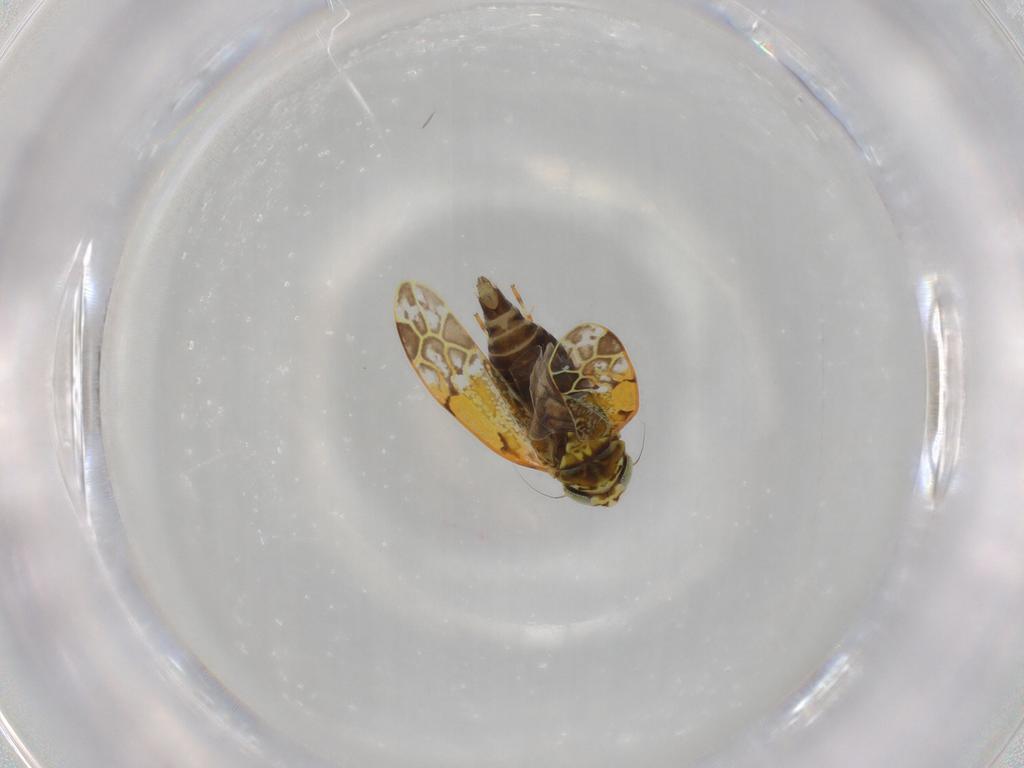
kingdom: Animalia
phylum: Arthropoda
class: Insecta
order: Hemiptera
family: Cicadellidae
